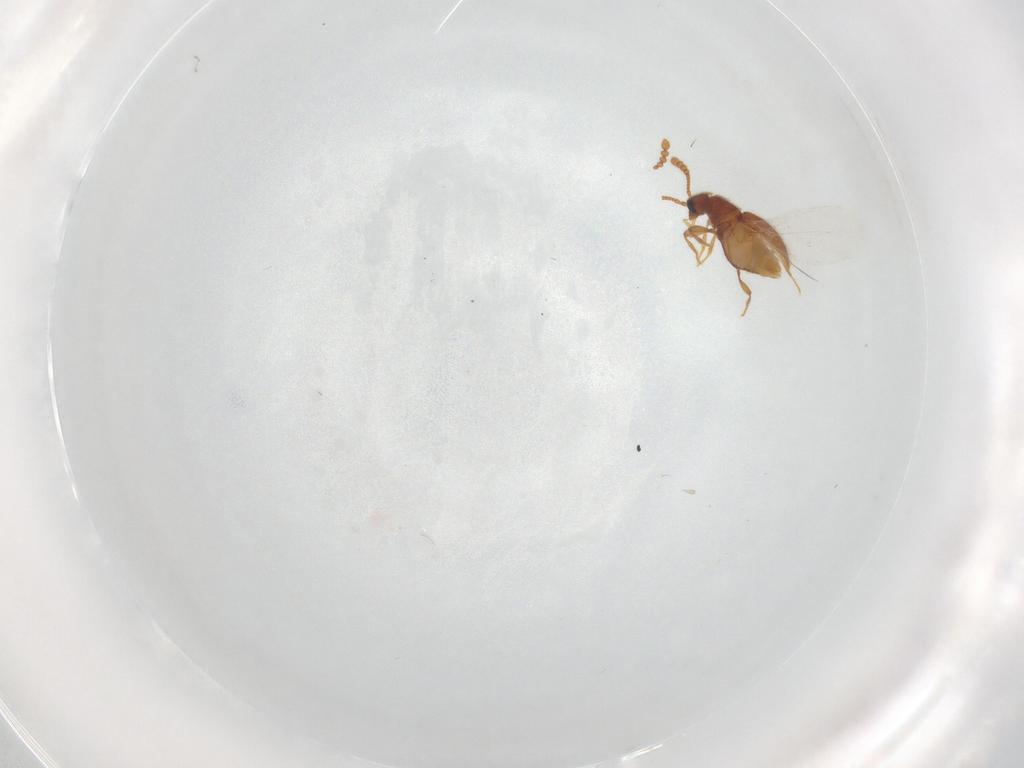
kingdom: Animalia
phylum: Arthropoda
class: Insecta
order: Coleoptera
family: Staphylinidae
